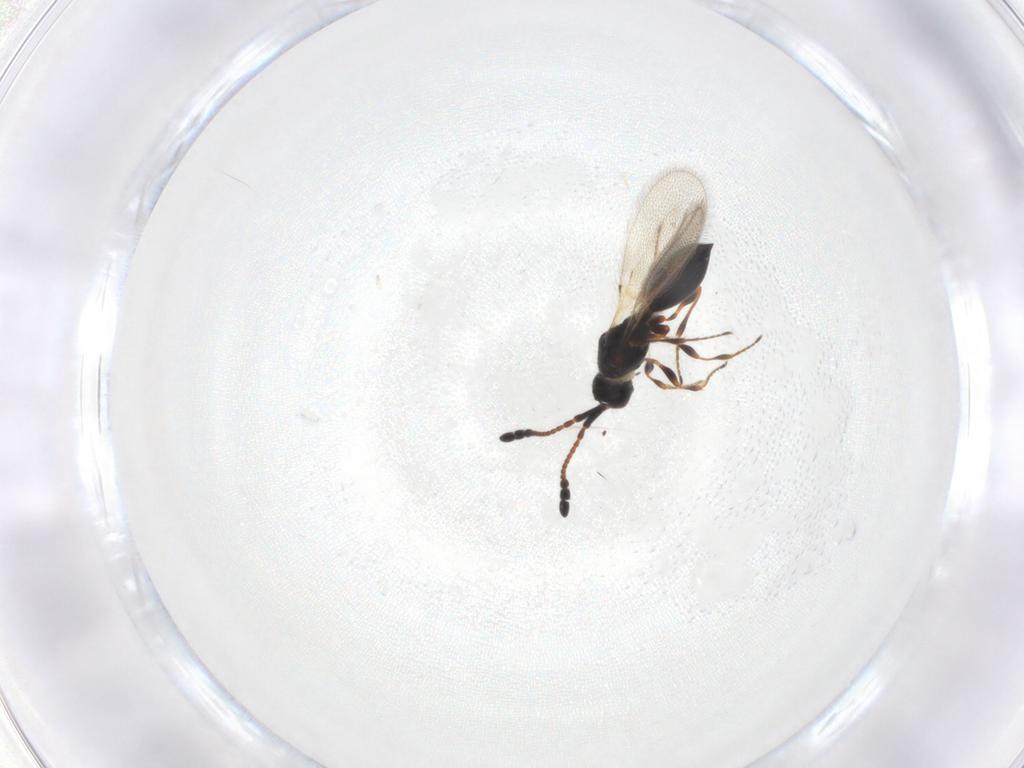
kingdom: Animalia
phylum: Arthropoda
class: Insecta
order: Hymenoptera
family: Diapriidae
